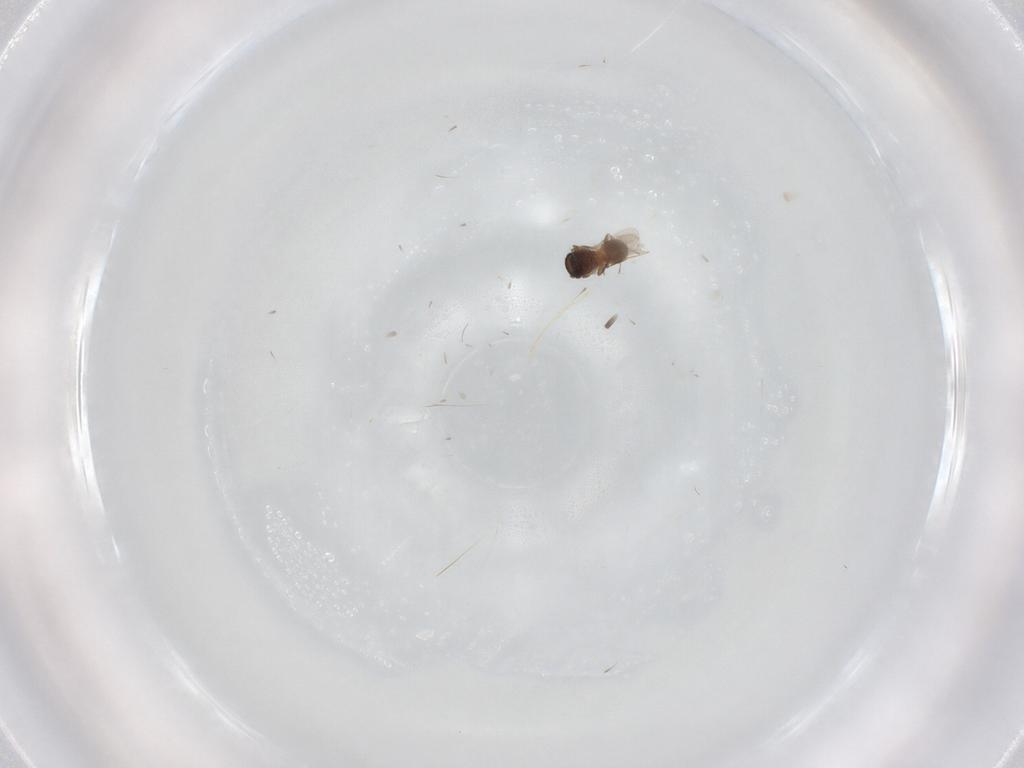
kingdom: Animalia
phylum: Arthropoda
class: Insecta
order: Hymenoptera
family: Scelionidae
